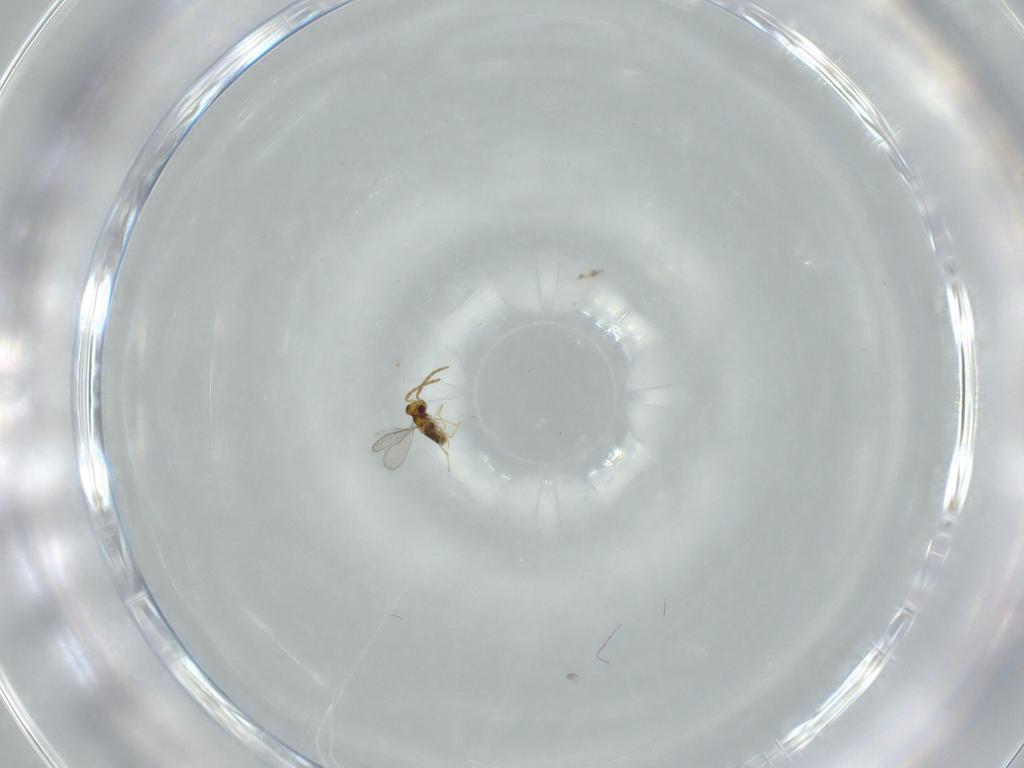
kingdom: Animalia
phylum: Arthropoda
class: Insecta
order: Hymenoptera
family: Aphelinidae
